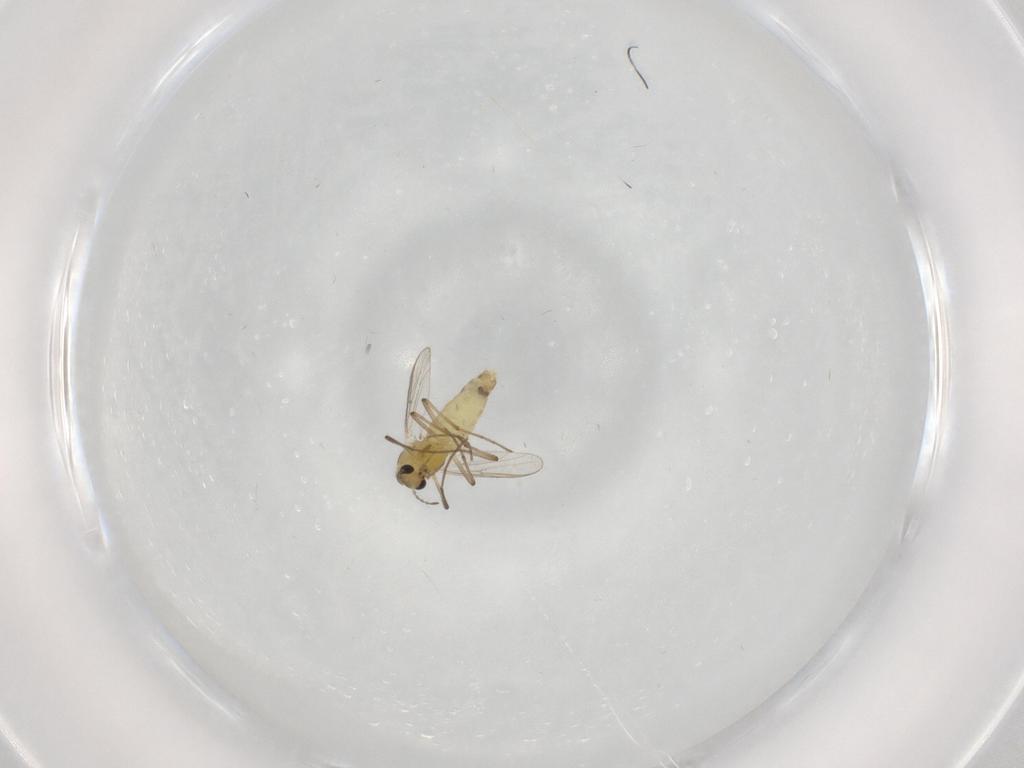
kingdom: Animalia
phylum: Arthropoda
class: Insecta
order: Diptera
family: Chironomidae
